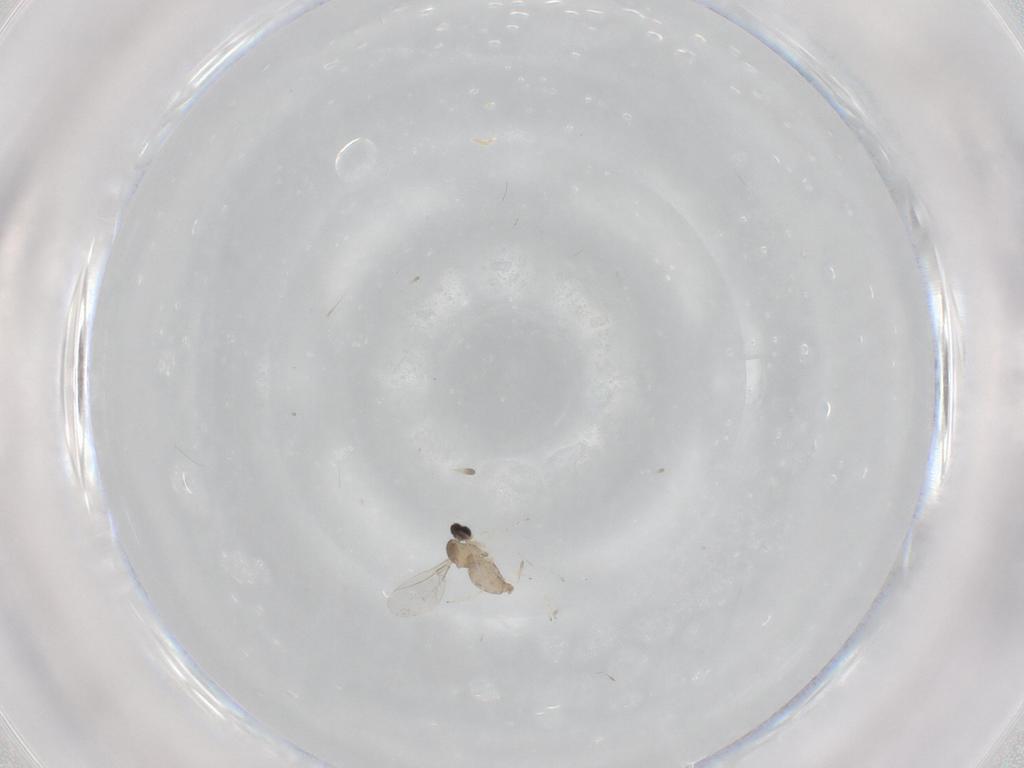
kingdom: Animalia
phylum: Arthropoda
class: Insecta
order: Diptera
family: Cecidomyiidae
